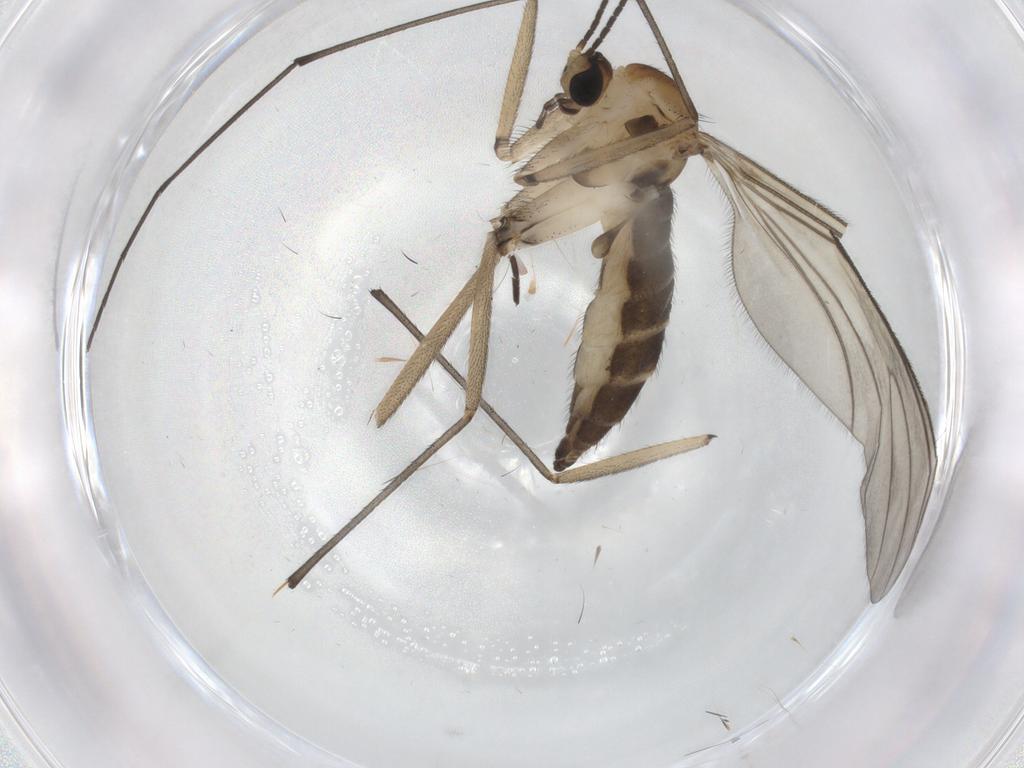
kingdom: Animalia
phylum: Arthropoda
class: Insecta
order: Diptera
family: Sciaridae
